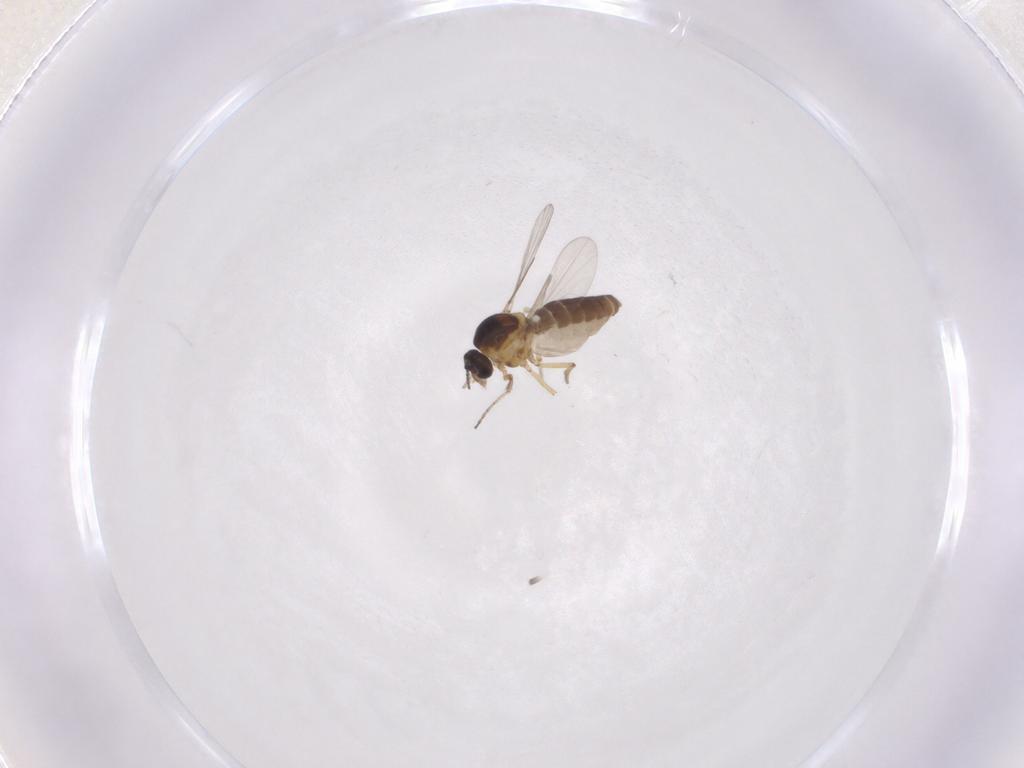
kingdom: Animalia
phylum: Arthropoda
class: Insecta
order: Diptera
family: Ceratopogonidae
